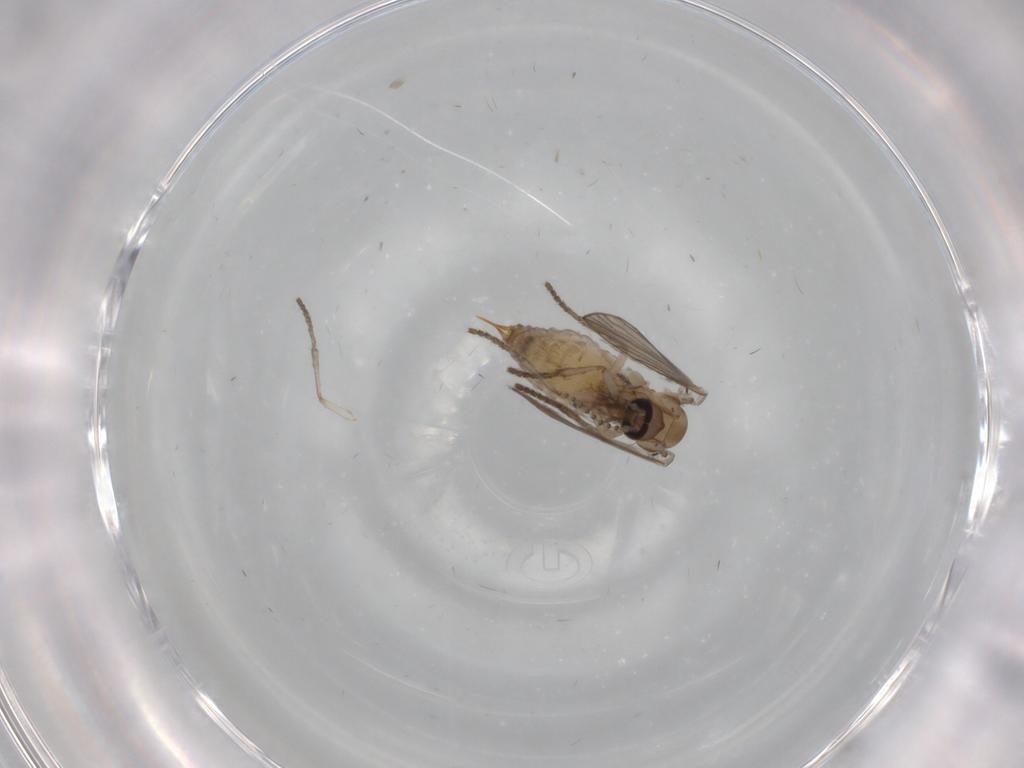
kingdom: Animalia
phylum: Arthropoda
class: Insecta
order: Diptera
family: Psychodidae
